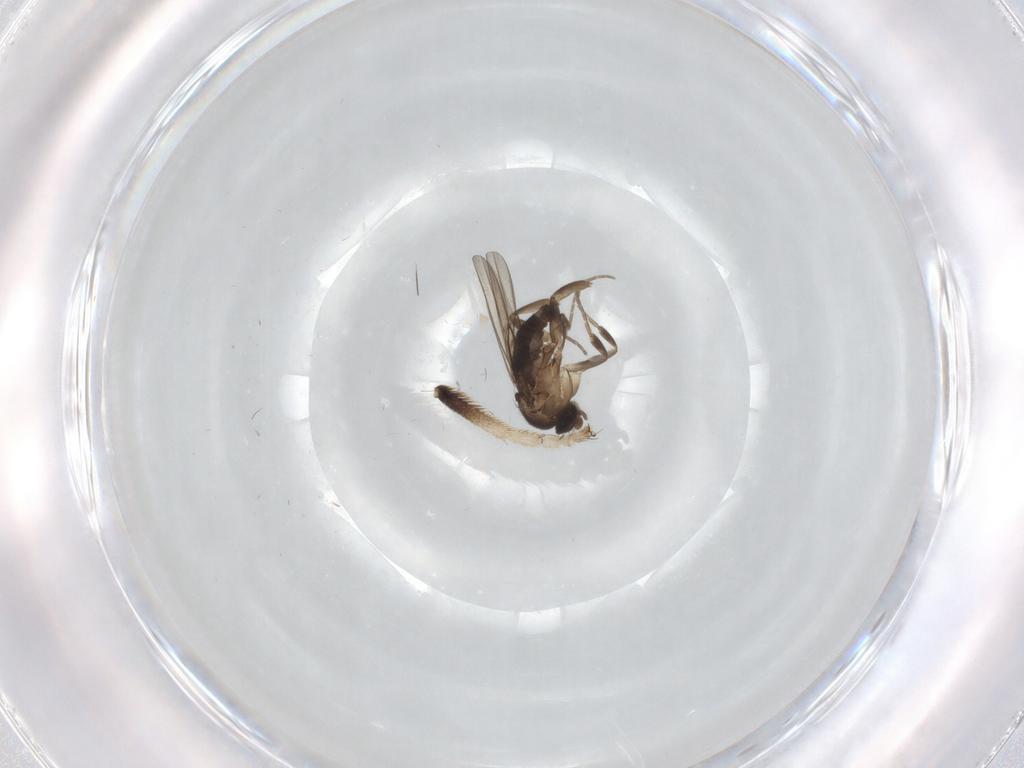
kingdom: Animalia
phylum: Arthropoda
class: Insecta
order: Diptera
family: Micropezidae
